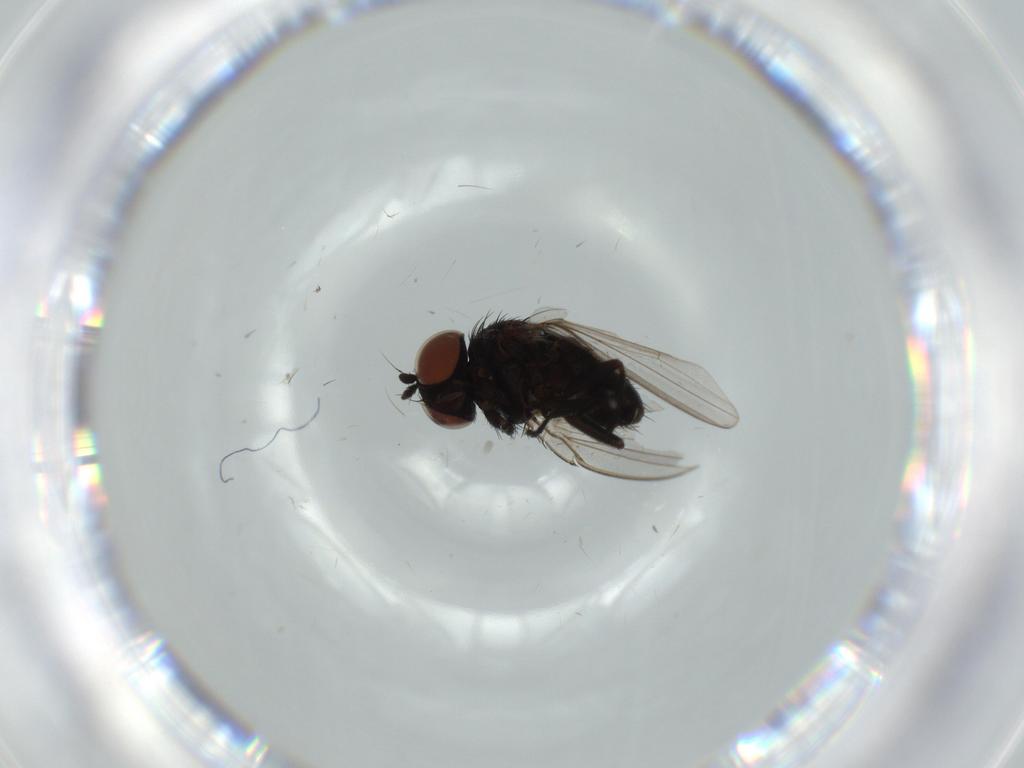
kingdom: Animalia
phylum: Arthropoda
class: Insecta
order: Diptera
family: Milichiidae
